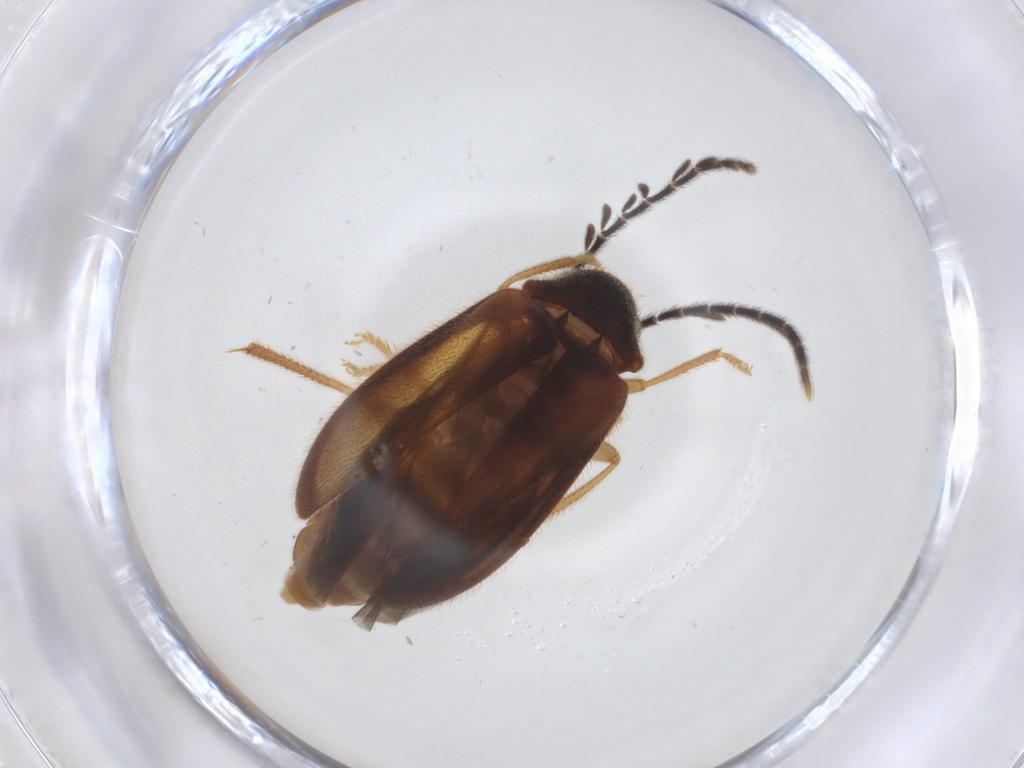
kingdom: Animalia
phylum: Arthropoda
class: Insecta
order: Coleoptera
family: Ptilodactylidae
